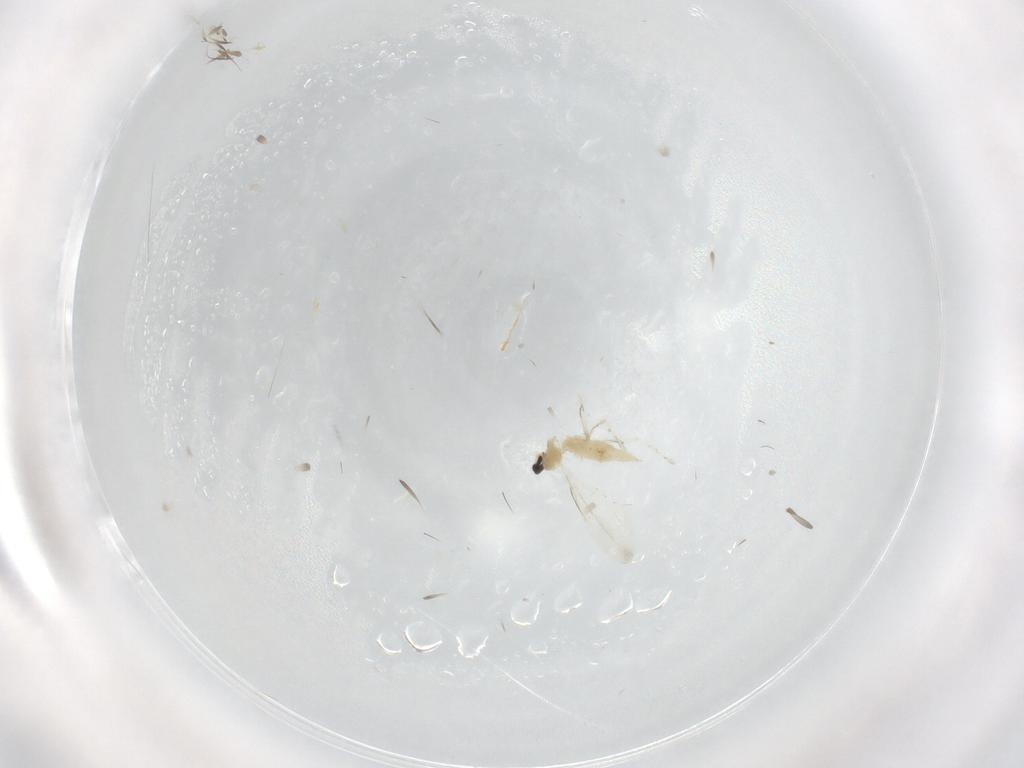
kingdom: Animalia
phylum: Arthropoda
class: Insecta
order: Diptera
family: Cecidomyiidae
